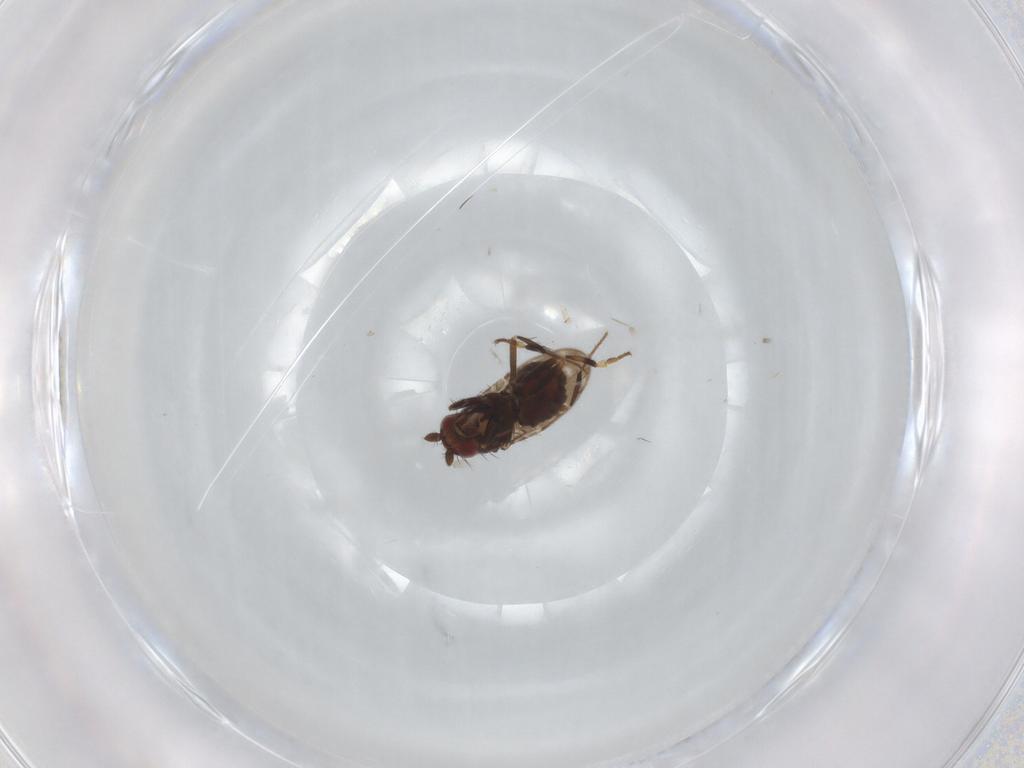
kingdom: Animalia
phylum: Arthropoda
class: Insecta
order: Diptera
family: Sphaeroceridae
